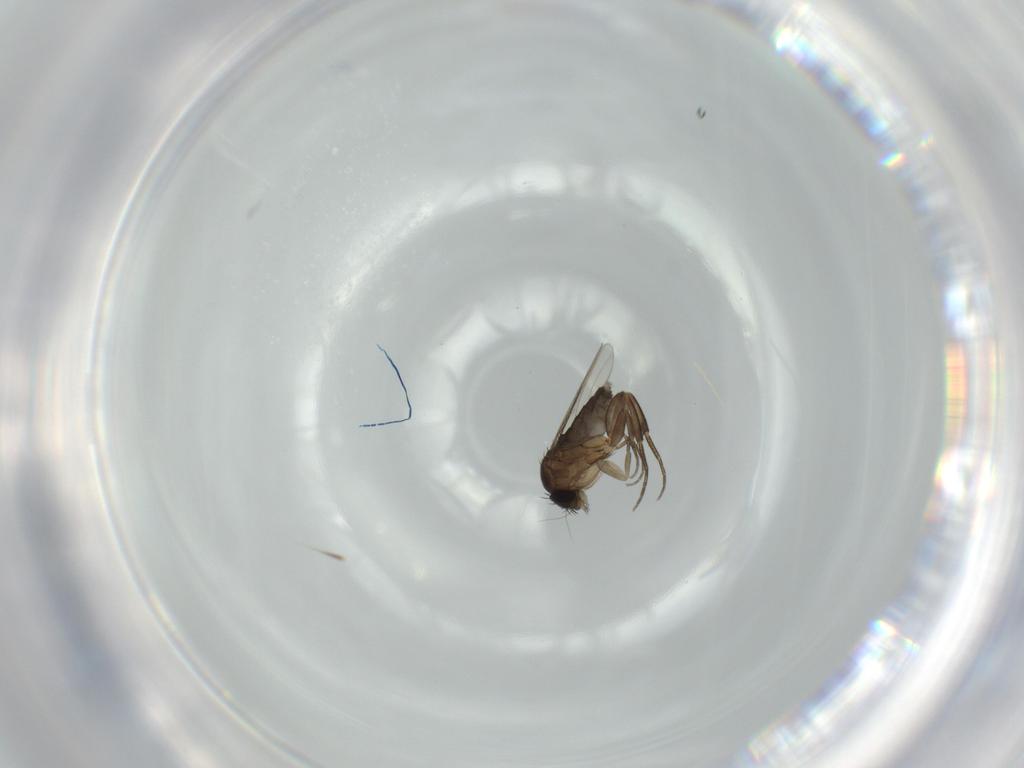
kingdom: Animalia
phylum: Arthropoda
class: Insecta
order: Diptera
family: Phoridae
